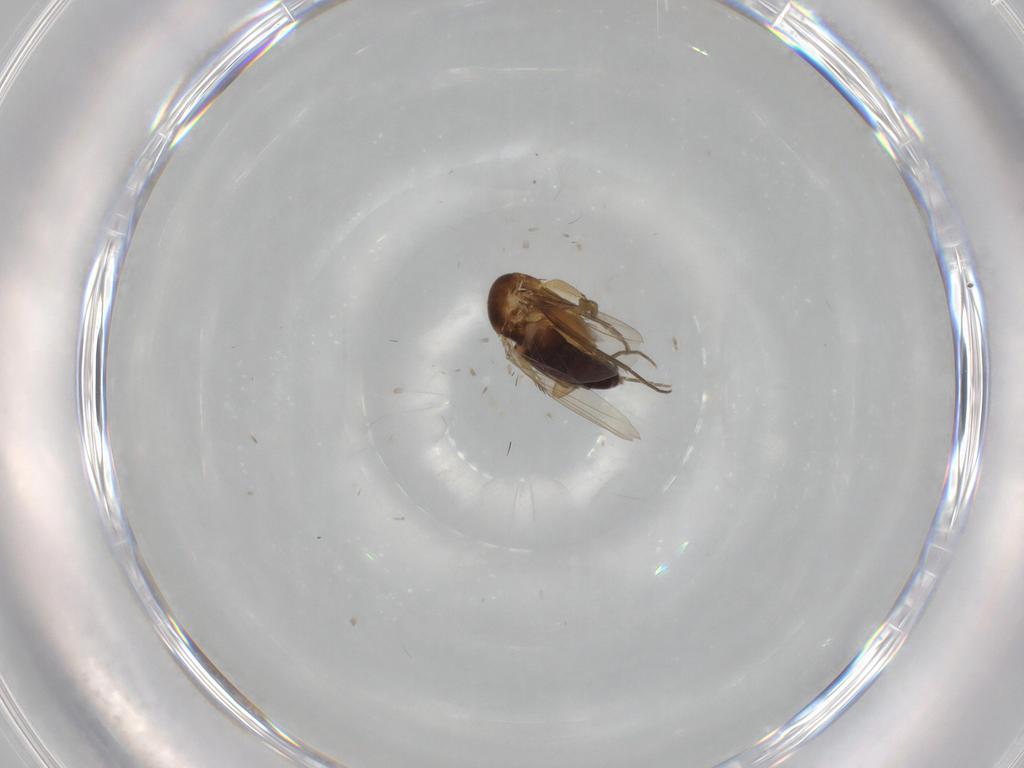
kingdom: Animalia
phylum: Arthropoda
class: Insecta
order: Diptera
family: Phoridae
